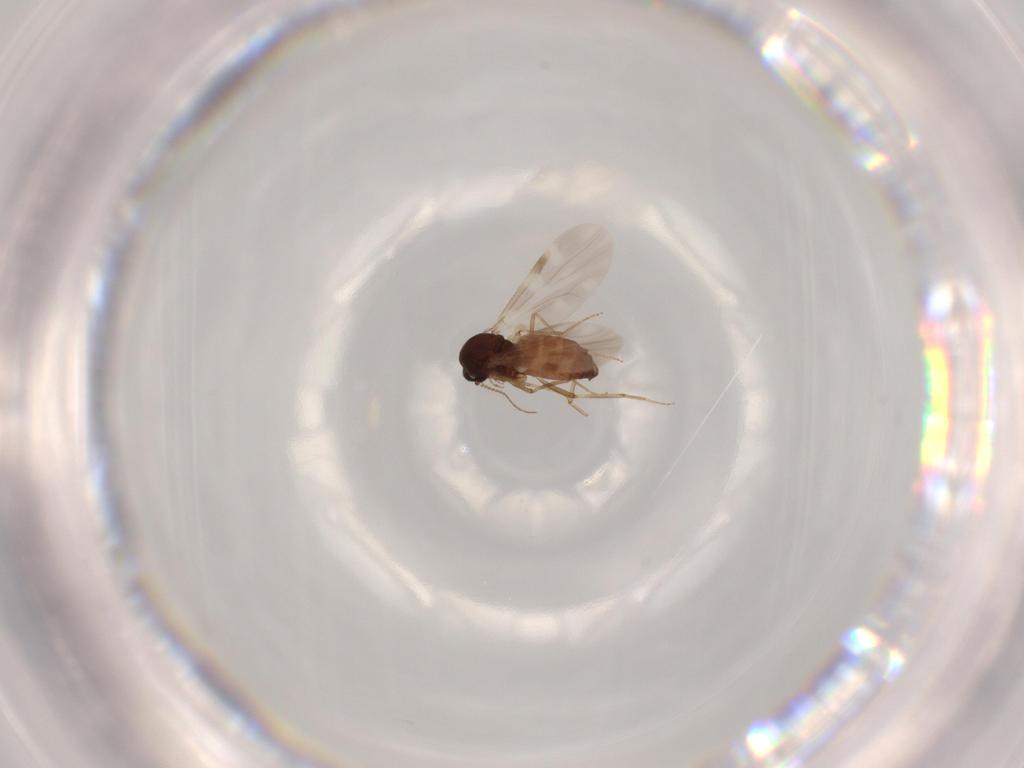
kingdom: Animalia
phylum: Arthropoda
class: Insecta
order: Diptera
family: Ceratopogonidae
